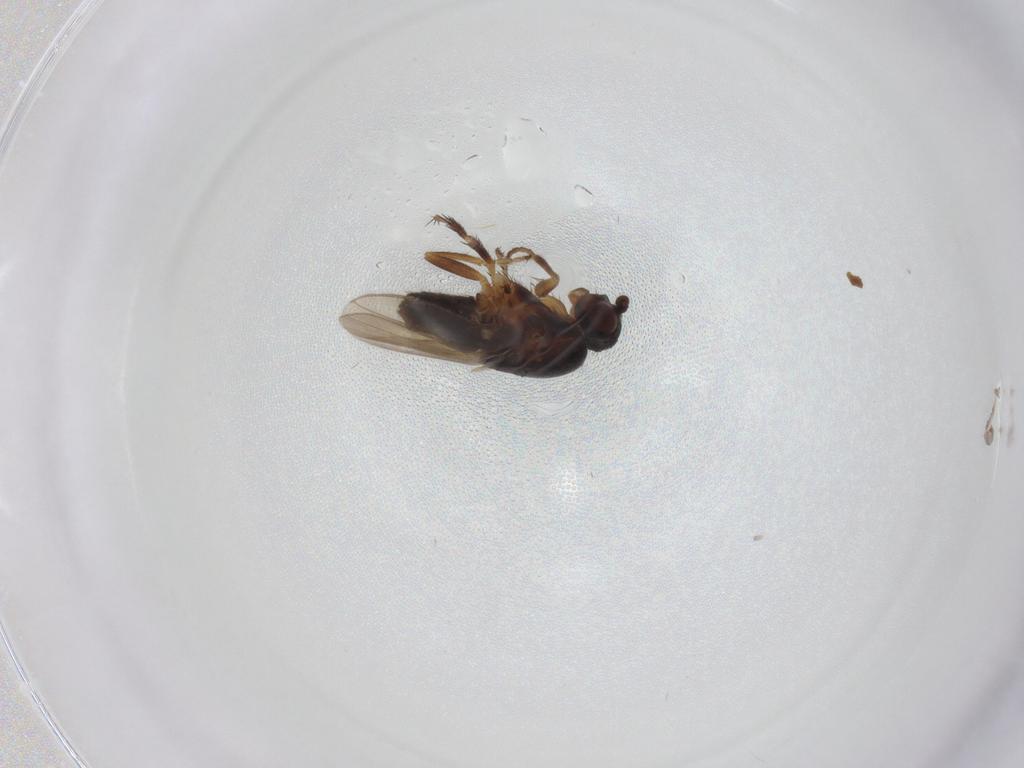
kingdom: Animalia
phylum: Arthropoda
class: Insecta
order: Diptera
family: Sphaeroceridae
